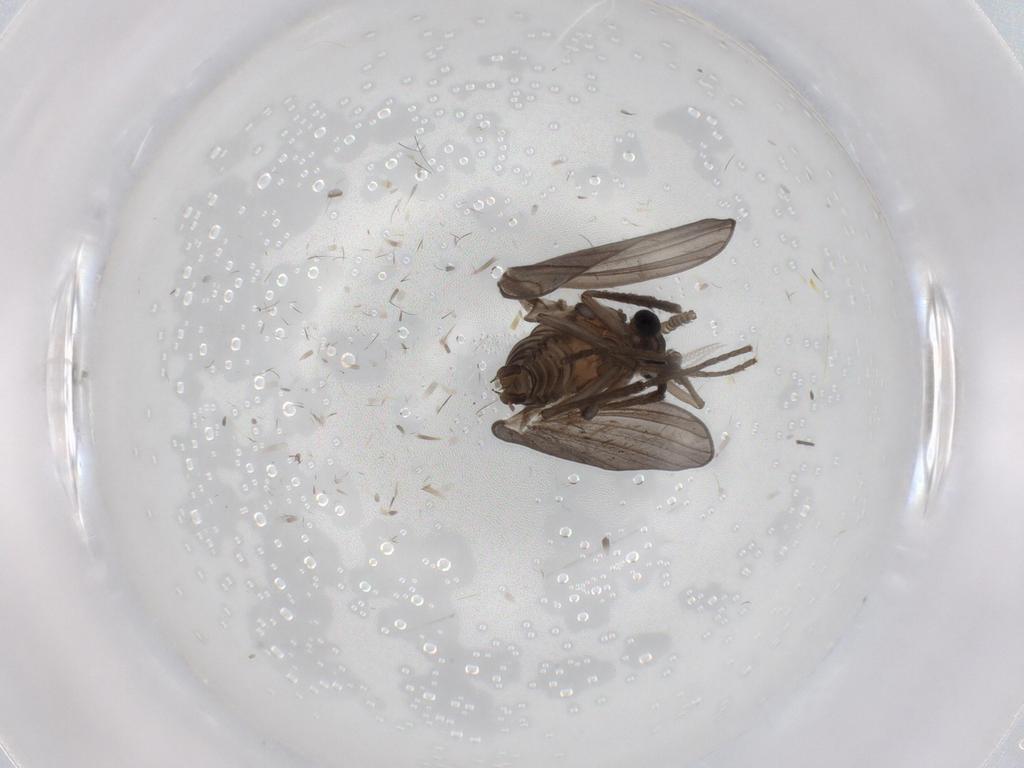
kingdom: Animalia
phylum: Arthropoda
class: Insecta
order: Diptera
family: Psychodidae
